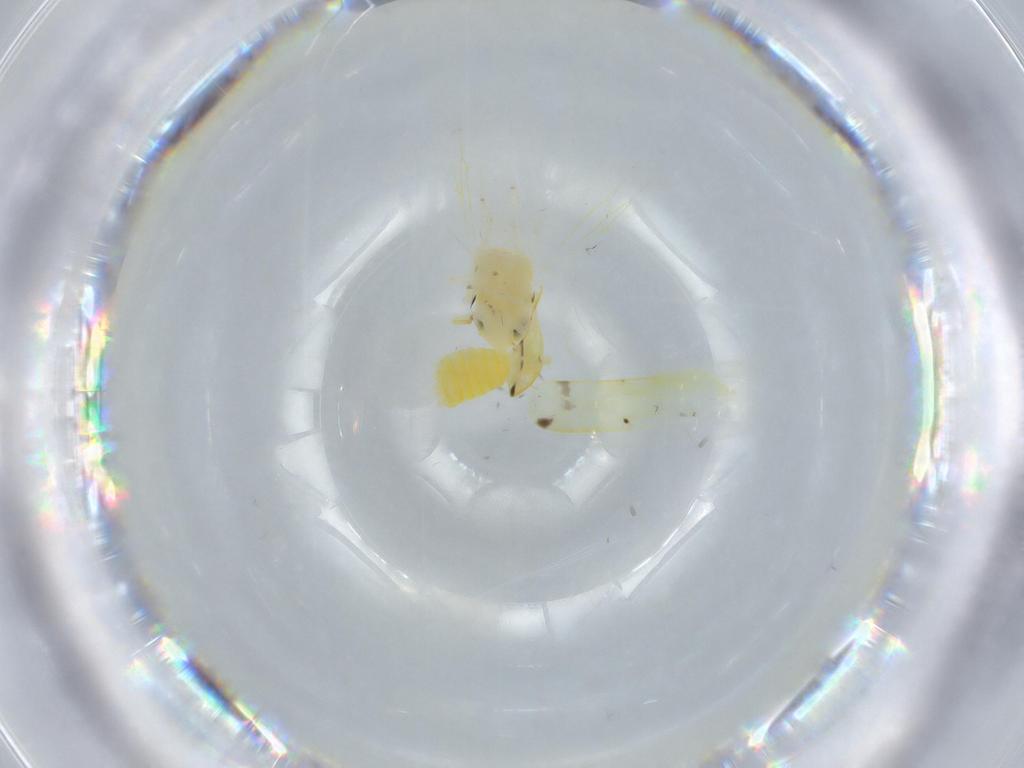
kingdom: Animalia
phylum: Arthropoda
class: Insecta
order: Hemiptera
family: Cicadellidae
